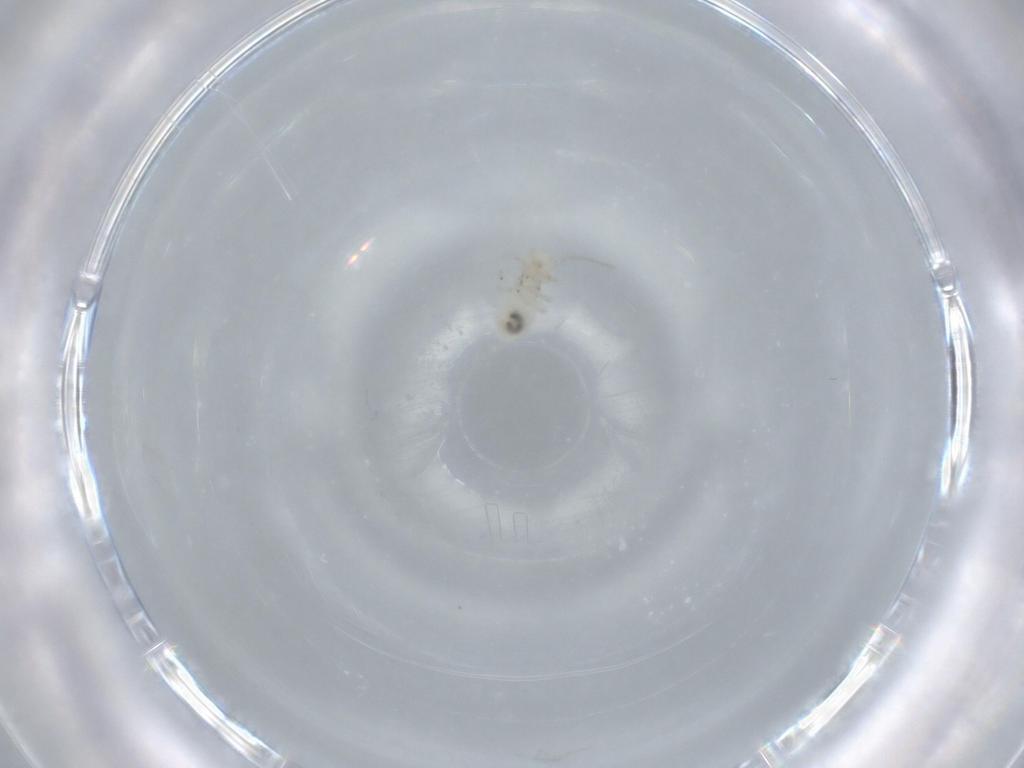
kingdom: Animalia
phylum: Arthropoda
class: Insecta
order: Psocodea
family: Caeciliusidae
